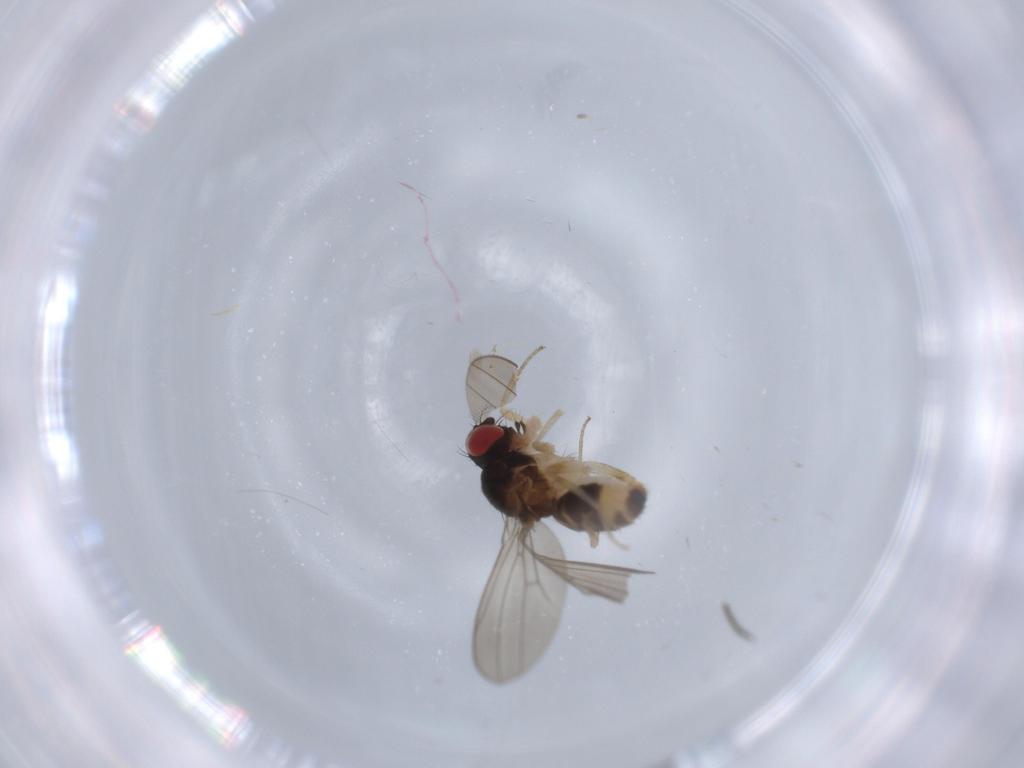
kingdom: Animalia
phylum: Arthropoda
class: Insecta
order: Diptera
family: Drosophilidae
